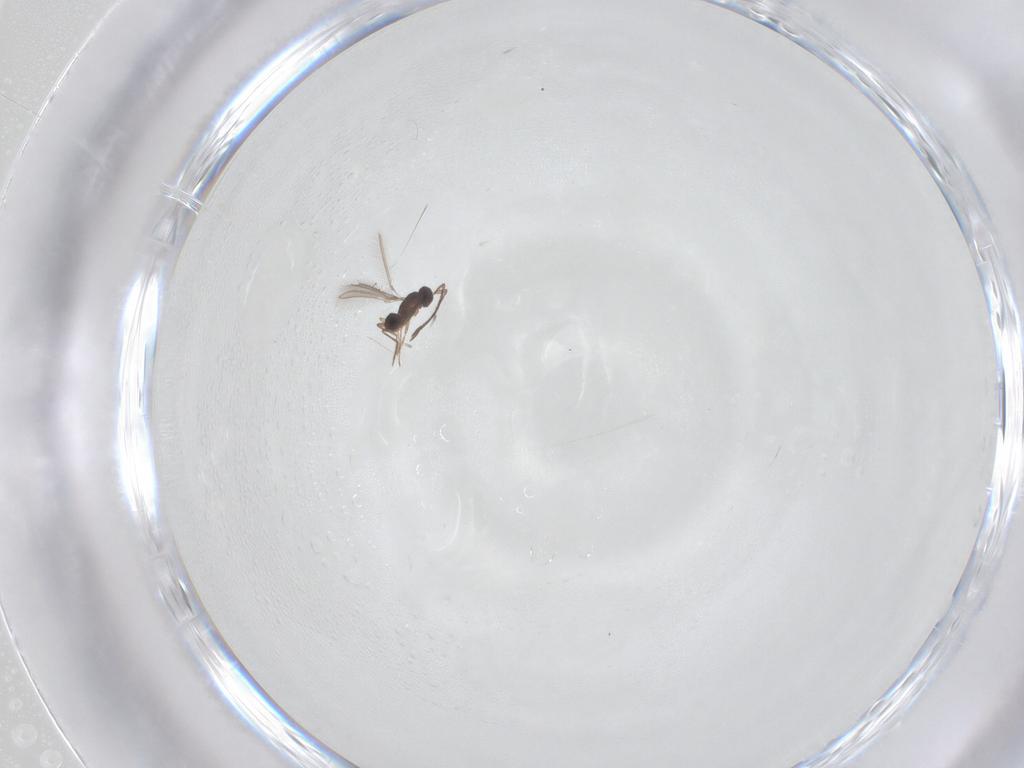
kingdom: Animalia
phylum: Arthropoda
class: Insecta
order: Hymenoptera
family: Mymaridae
